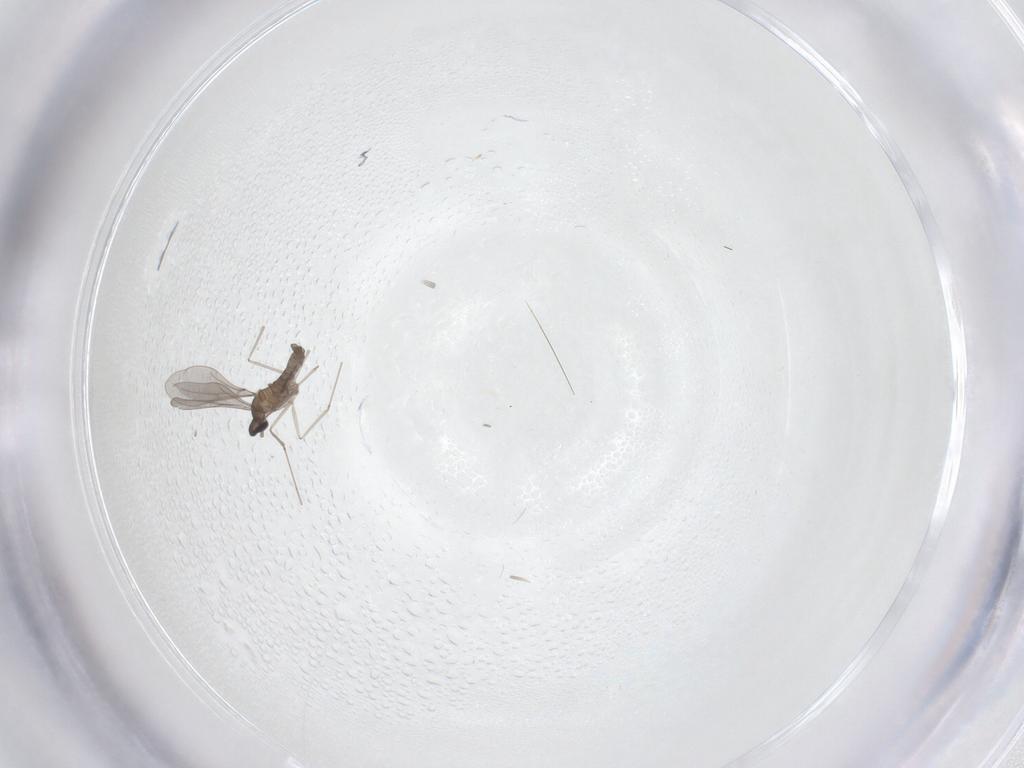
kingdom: Animalia
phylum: Arthropoda
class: Insecta
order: Diptera
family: Cecidomyiidae
